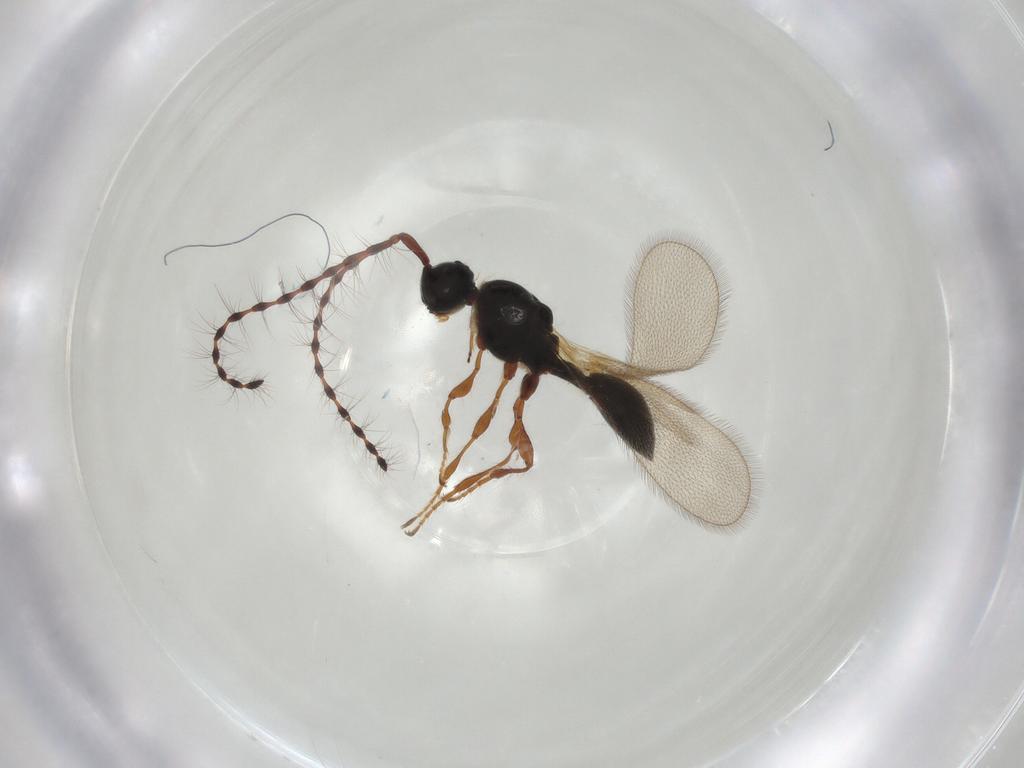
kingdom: Animalia
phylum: Arthropoda
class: Insecta
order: Hymenoptera
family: Diapriidae
